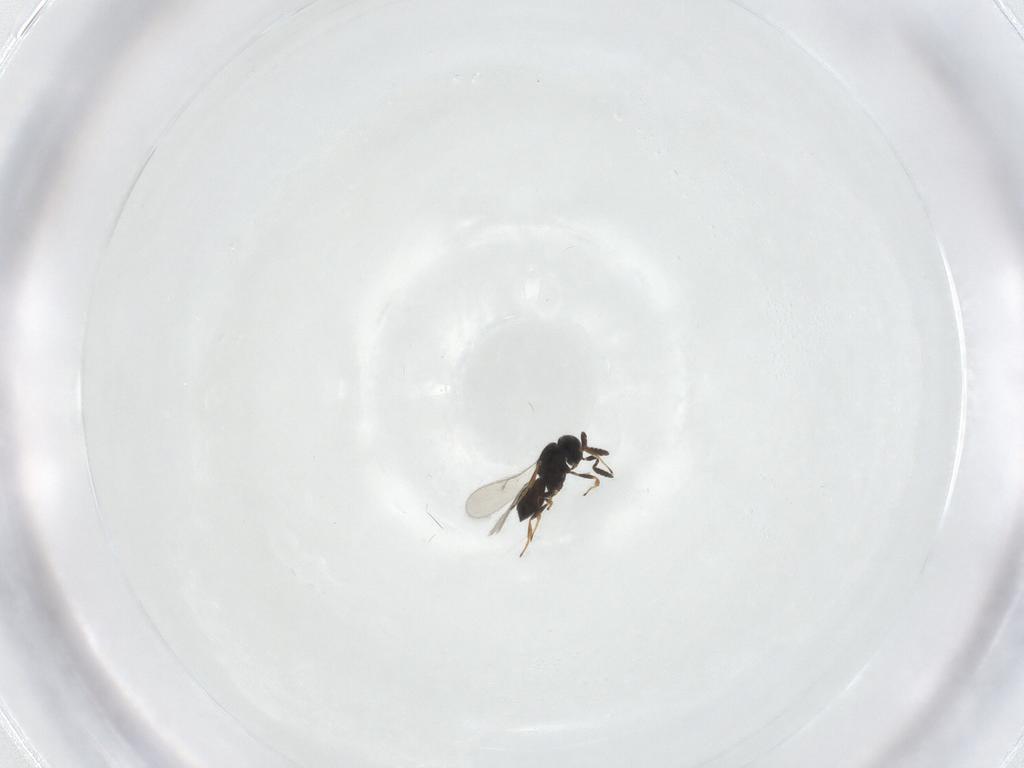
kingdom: Animalia
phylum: Arthropoda
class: Insecta
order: Hymenoptera
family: Scelionidae
